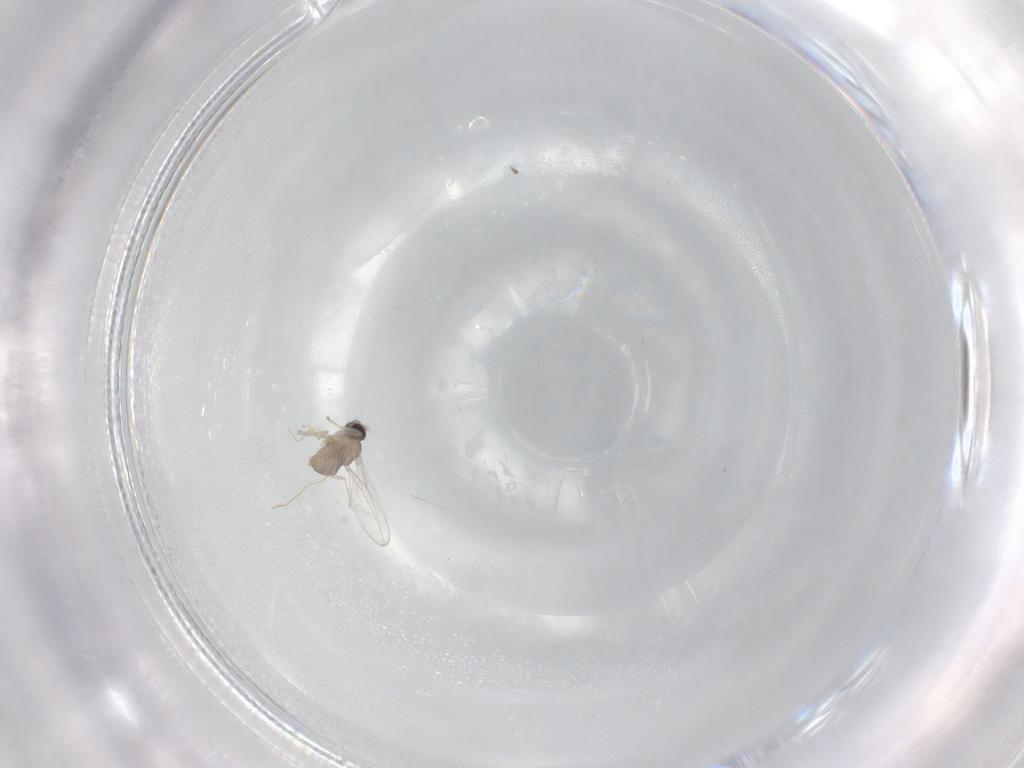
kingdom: Animalia
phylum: Arthropoda
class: Insecta
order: Diptera
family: Cecidomyiidae
